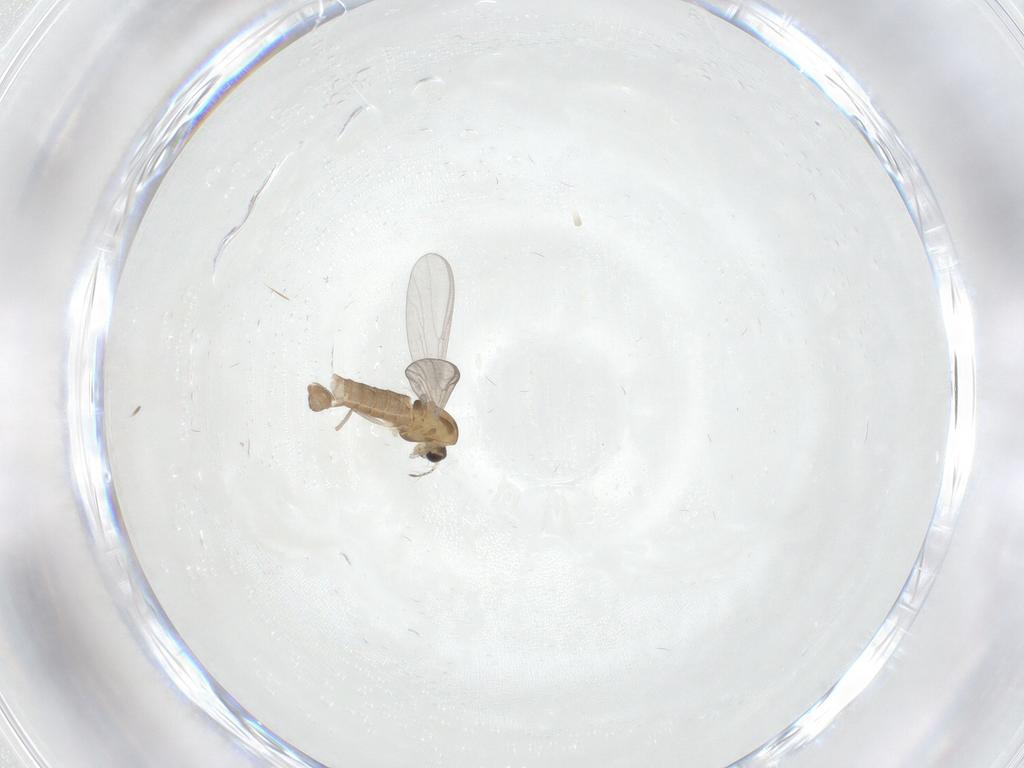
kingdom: Animalia
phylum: Arthropoda
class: Insecta
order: Diptera
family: Chironomidae
